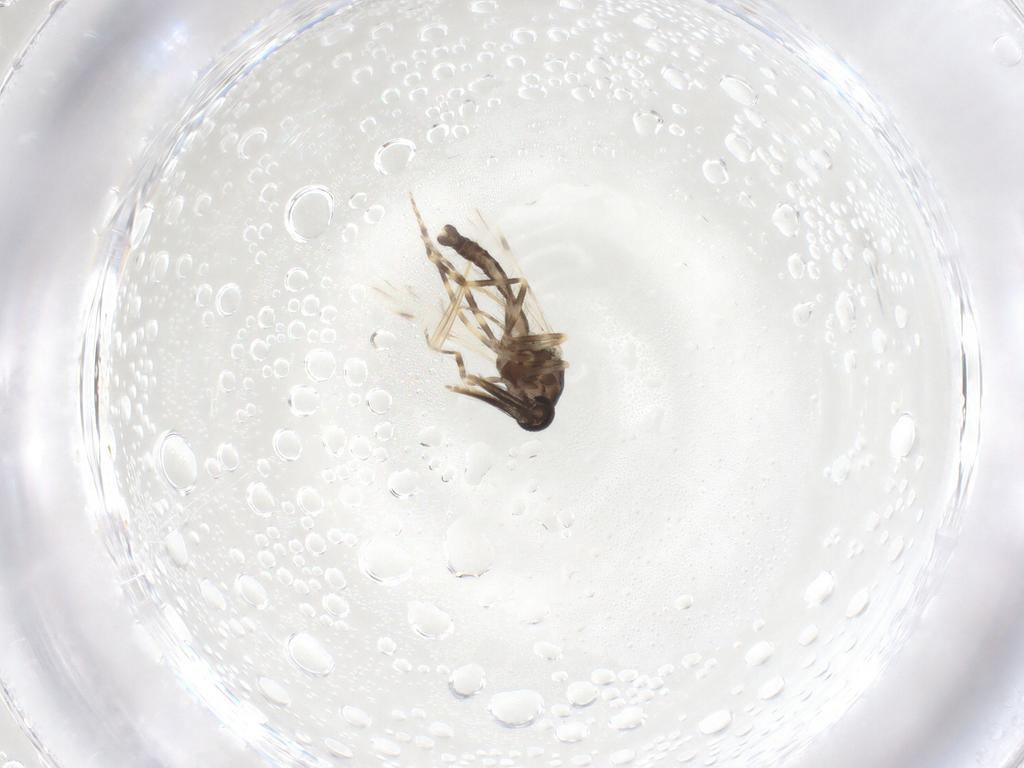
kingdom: Animalia
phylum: Arthropoda
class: Insecta
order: Diptera
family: Ceratopogonidae
